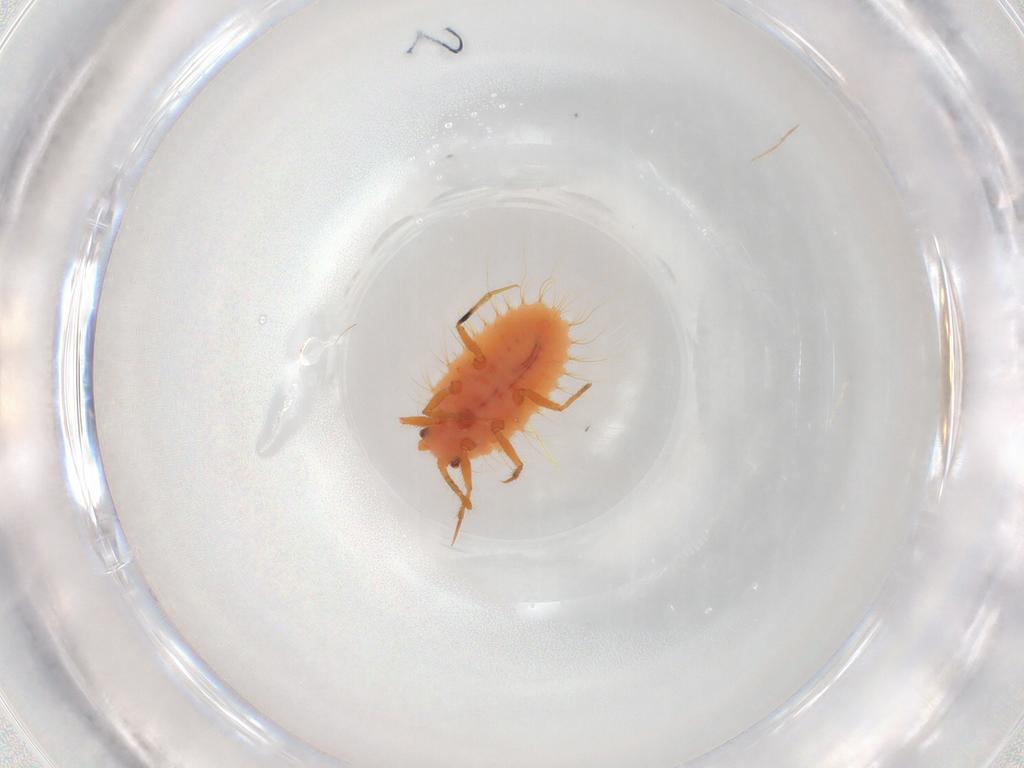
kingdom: Animalia
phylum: Arthropoda
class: Insecta
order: Hemiptera
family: Coccoidea_incertae_sedis
